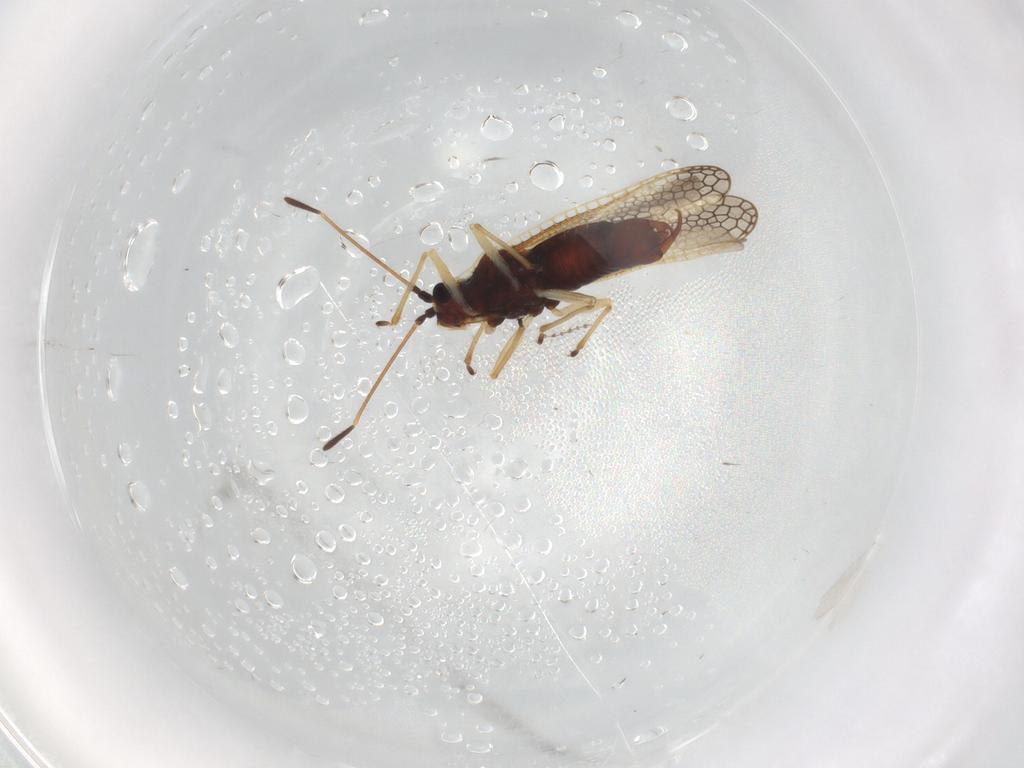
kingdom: Animalia
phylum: Arthropoda
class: Insecta
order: Hemiptera
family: Tingidae
